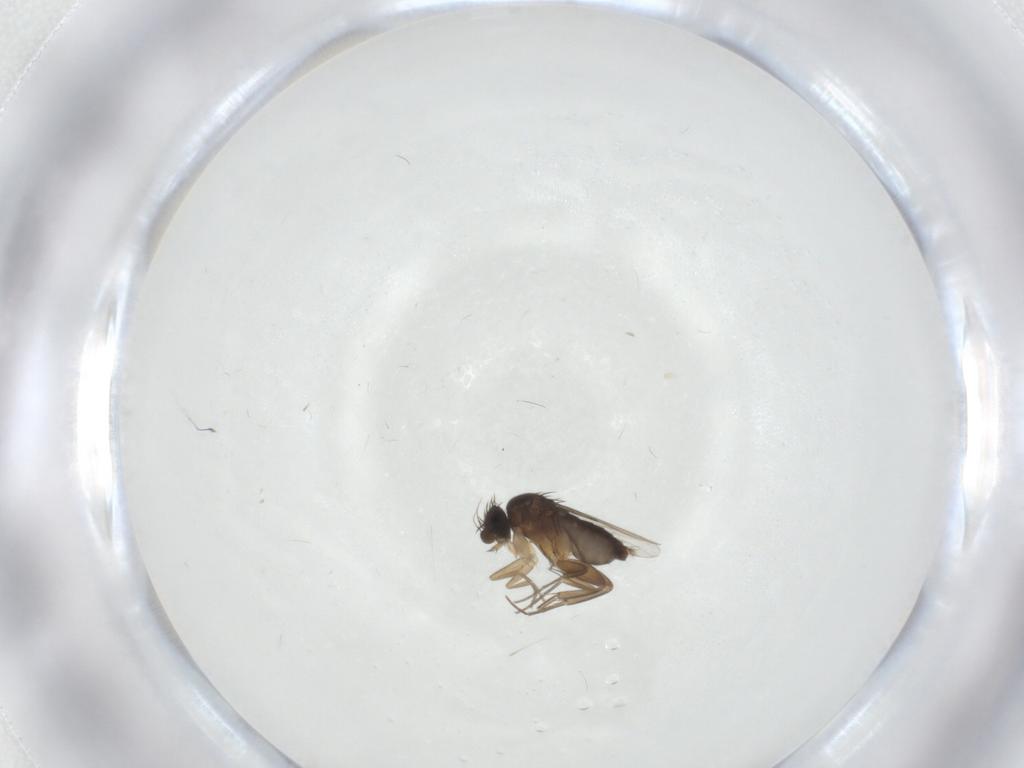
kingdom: Animalia
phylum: Arthropoda
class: Insecta
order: Diptera
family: Phoridae
